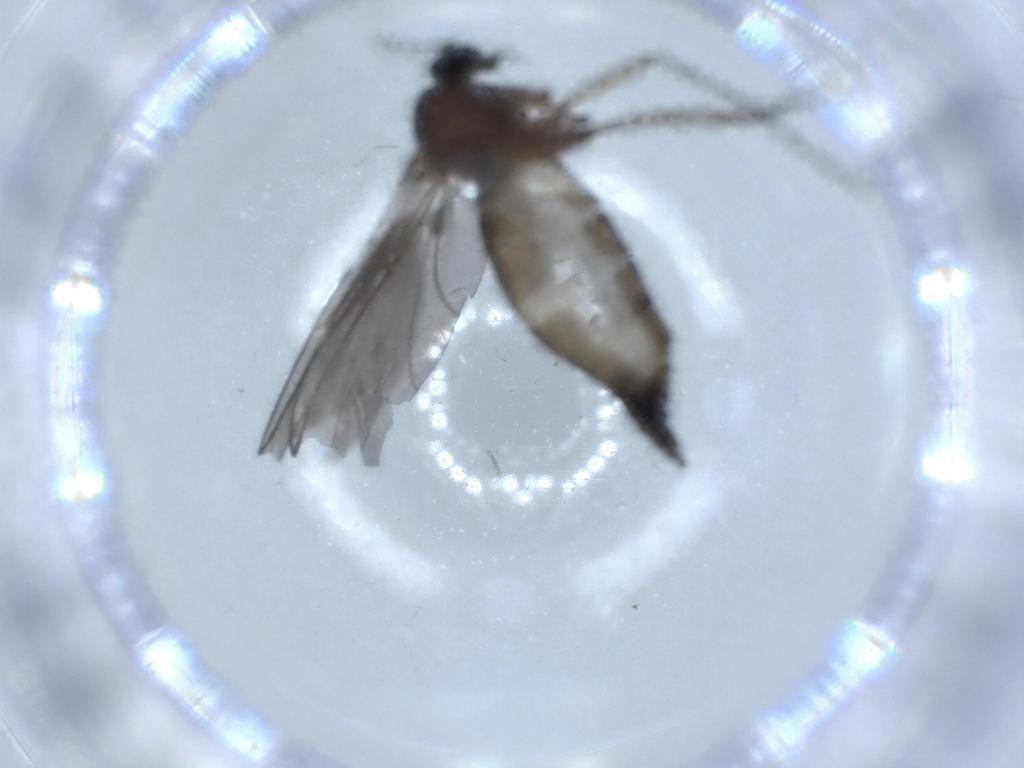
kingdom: Animalia
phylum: Arthropoda
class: Insecta
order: Diptera
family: Sciaridae
